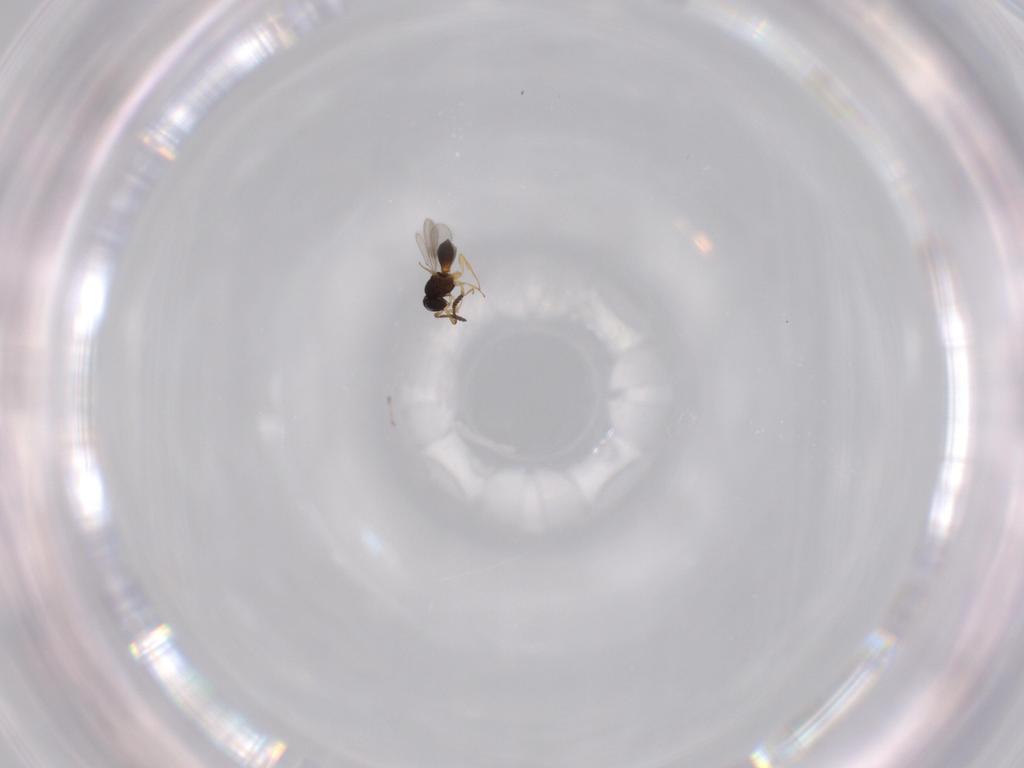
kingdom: Animalia
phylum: Arthropoda
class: Insecta
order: Hymenoptera
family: Scelionidae
